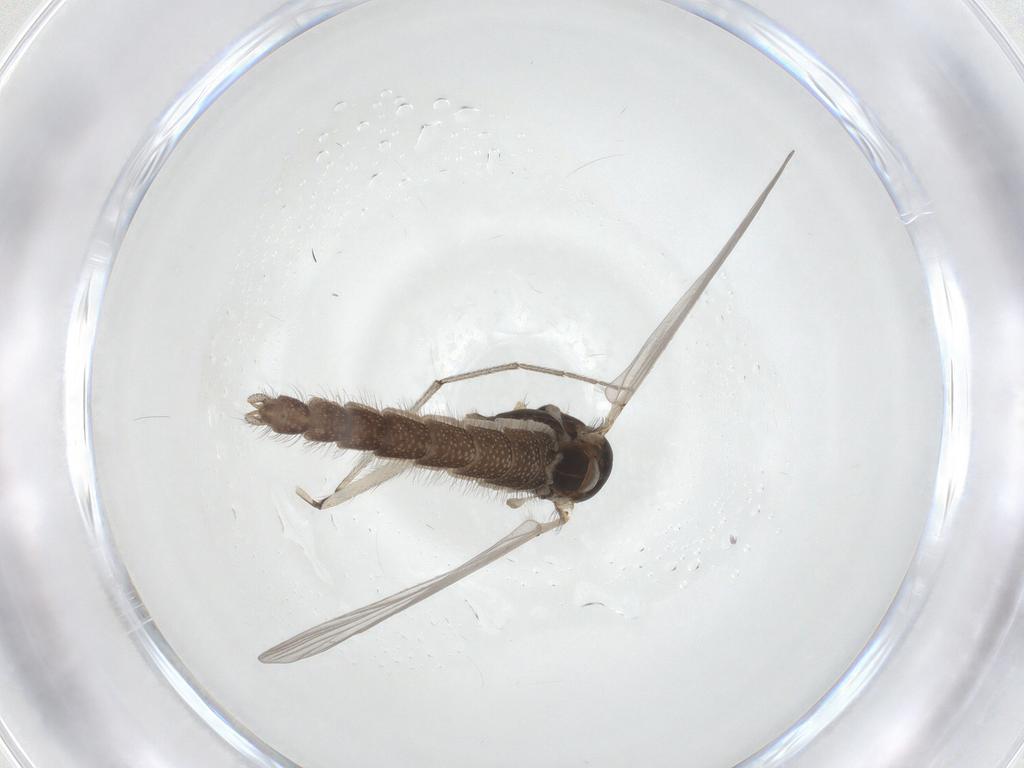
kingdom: Animalia
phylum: Arthropoda
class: Insecta
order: Diptera
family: Chironomidae
